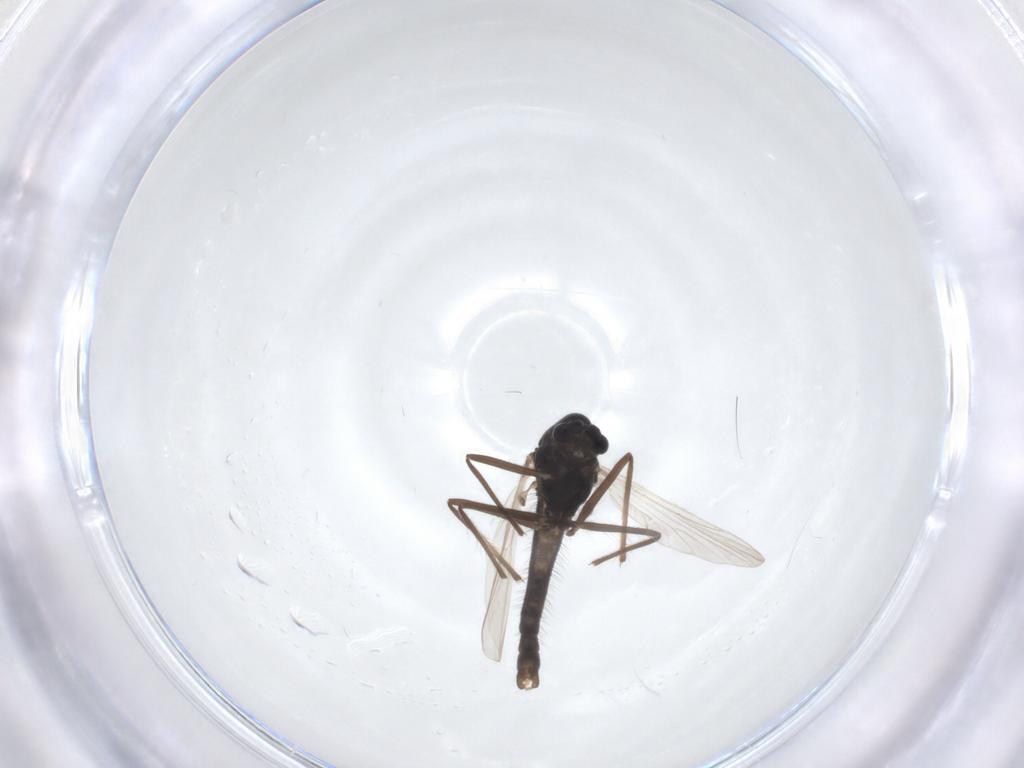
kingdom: Animalia
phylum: Arthropoda
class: Insecta
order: Diptera
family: Chironomidae
